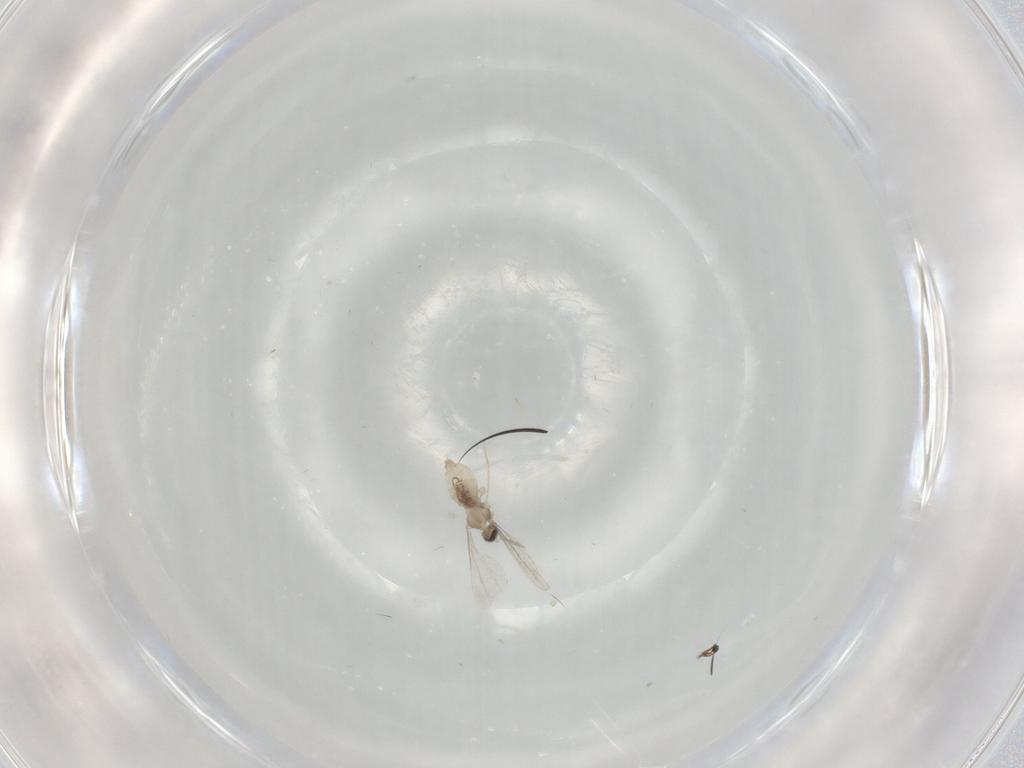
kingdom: Animalia
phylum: Arthropoda
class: Insecta
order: Diptera
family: Cecidomyiidae
